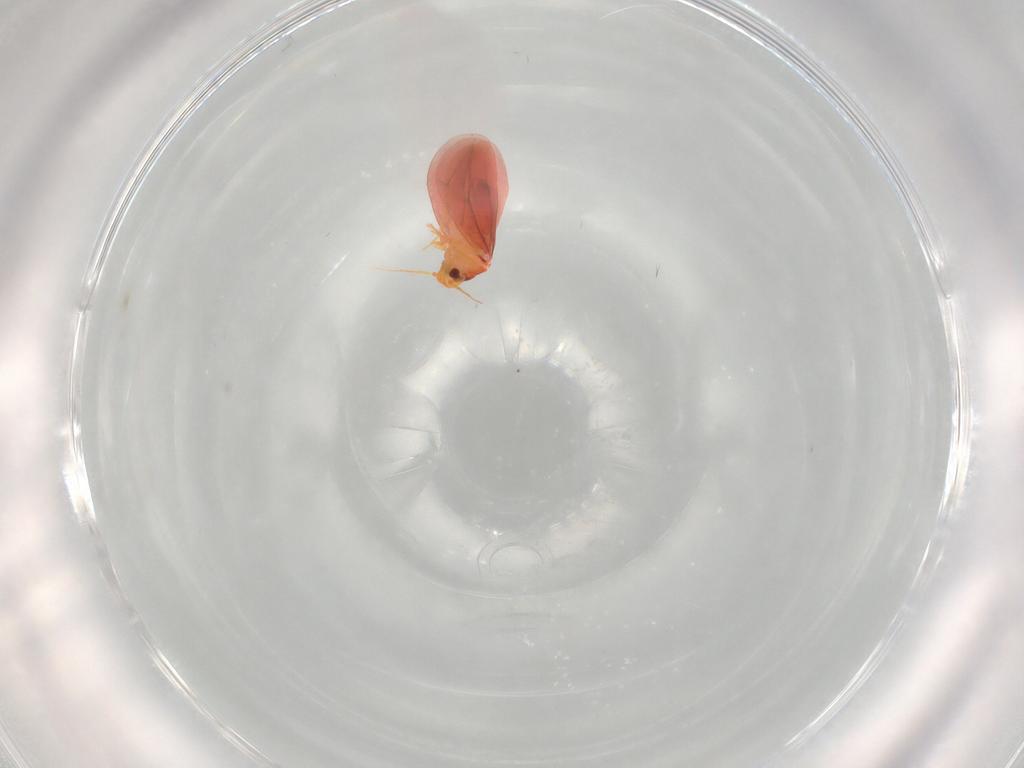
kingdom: Animalia
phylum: Arthropoda
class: Insecta
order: Hemiptera
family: Aleyrodidae
